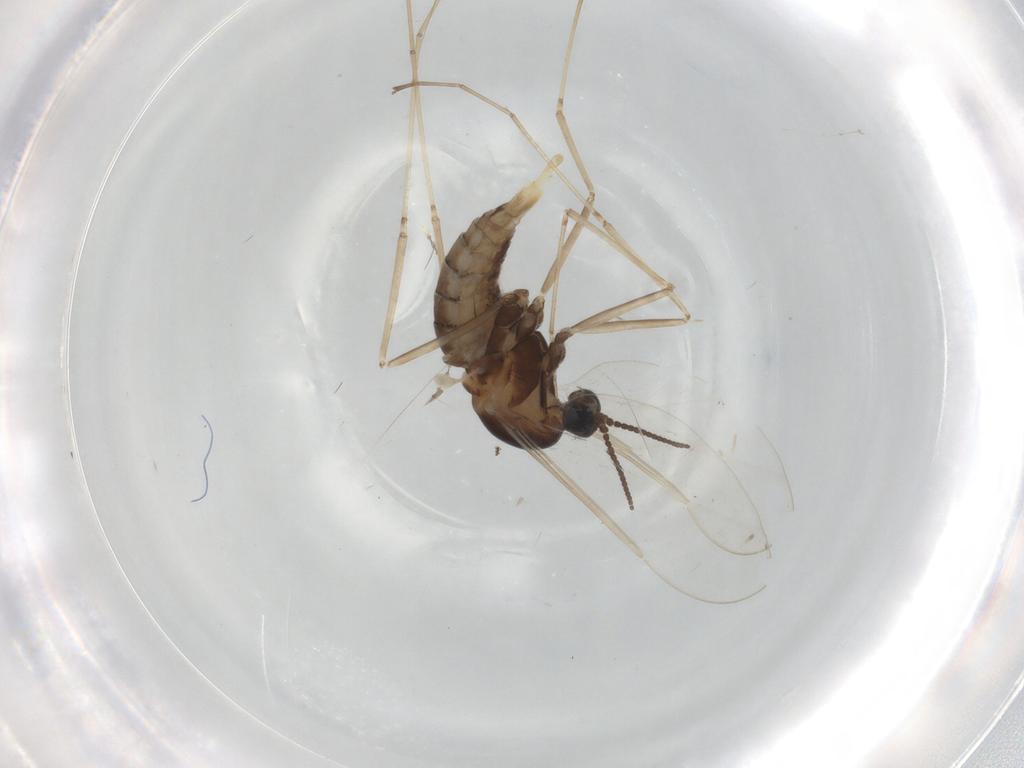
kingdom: Animalia
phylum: Arthropoda
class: Insecta
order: Diptera
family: Cecidomyiidae
